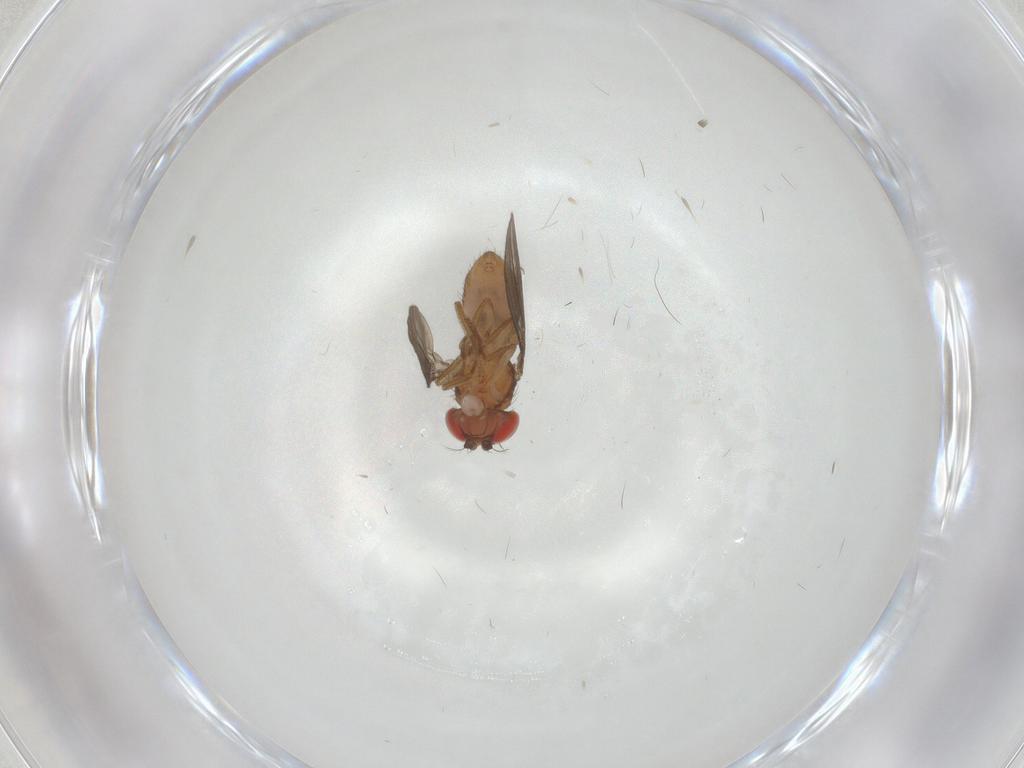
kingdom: Animalia
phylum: Arthropoda
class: Insecta
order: Diptera
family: Drosophilidae
